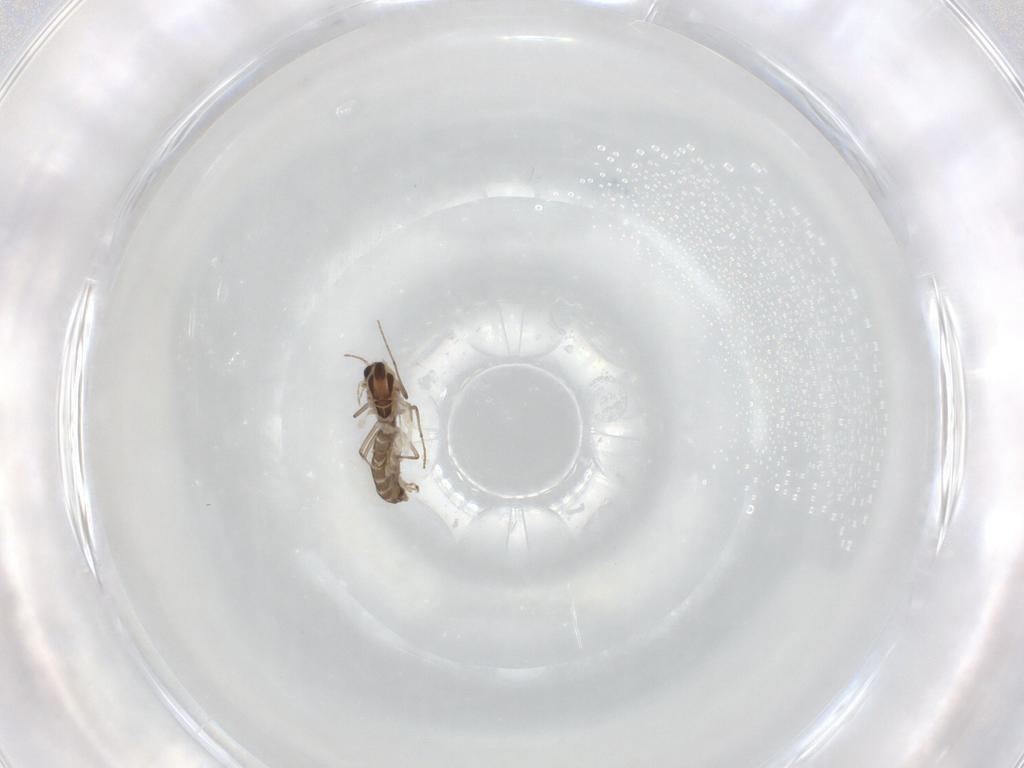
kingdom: Animalia
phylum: Arthropoda
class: Insecta
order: Diptera
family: Chironomidae
